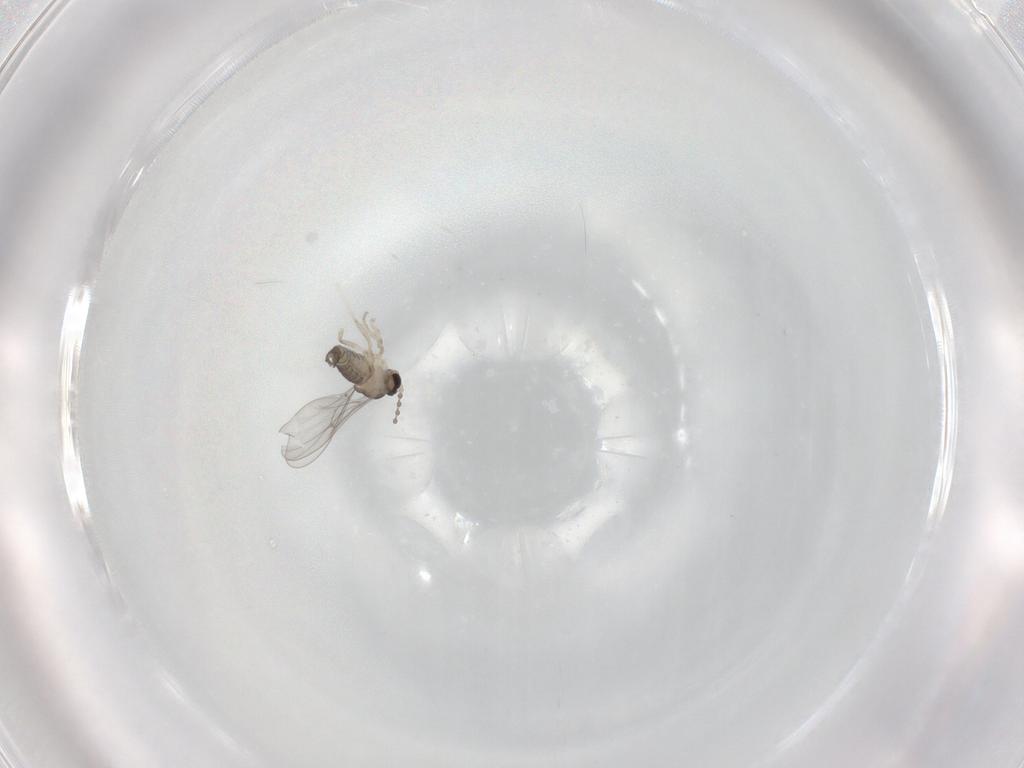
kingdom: Animalia
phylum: Arthropoda
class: Insecta
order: Diptera
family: Cecidomyiidae
